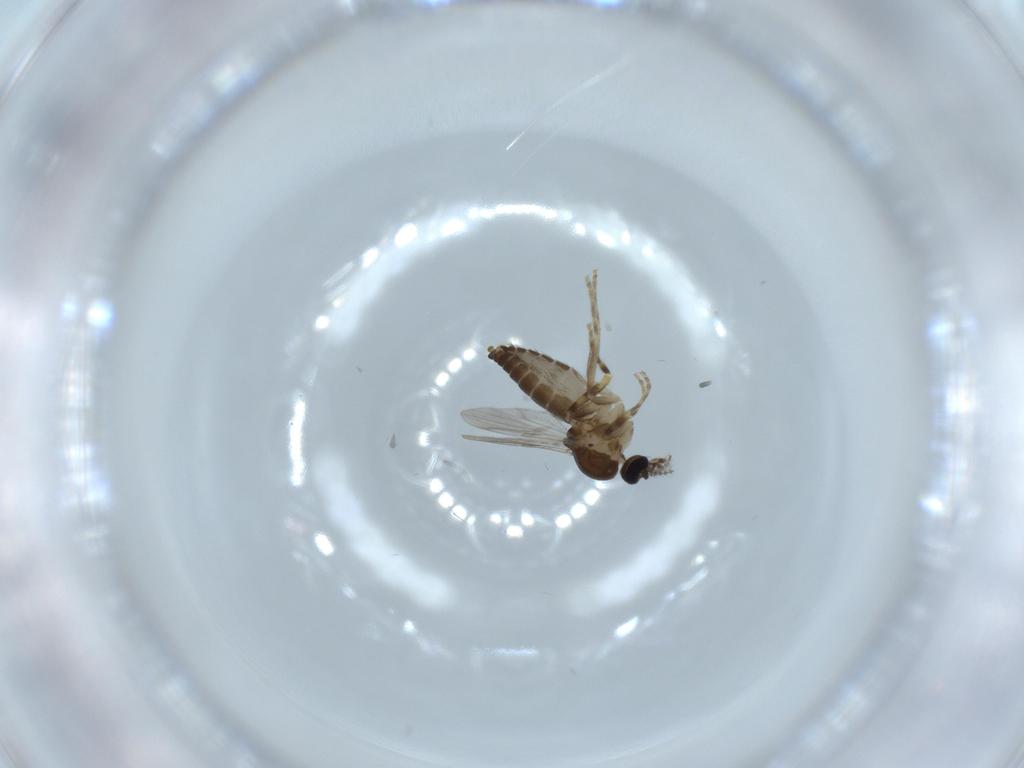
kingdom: Animalia
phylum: Arthropoda
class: Insecta
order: Diptera
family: Ceratopogonidae
